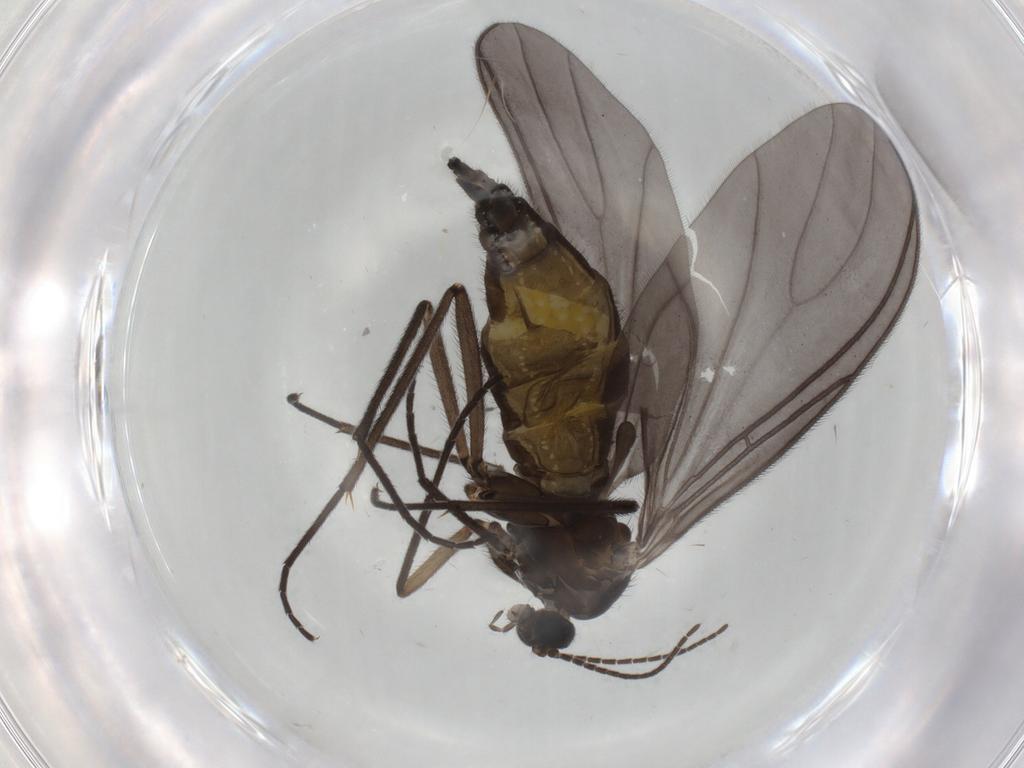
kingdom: Animalia
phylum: Arthropoda
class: Insecta
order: Diptera
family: Sciaridae
